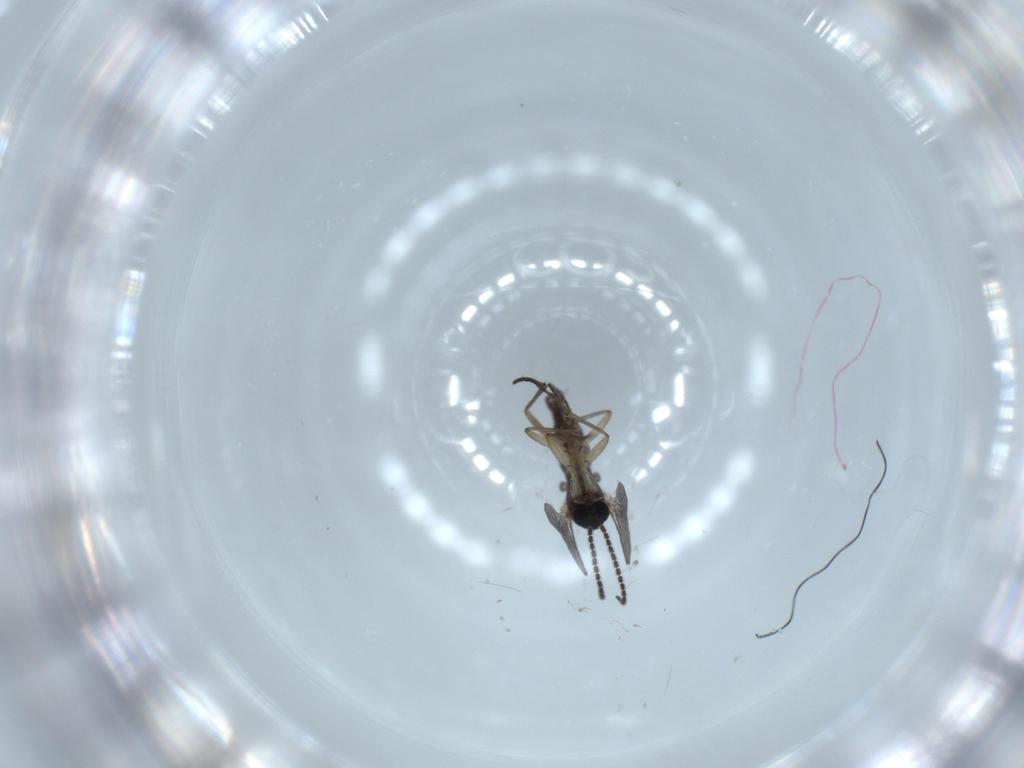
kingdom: Animalia
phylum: Arthropoda
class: Insecta
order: Diptera
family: Sciaridae
